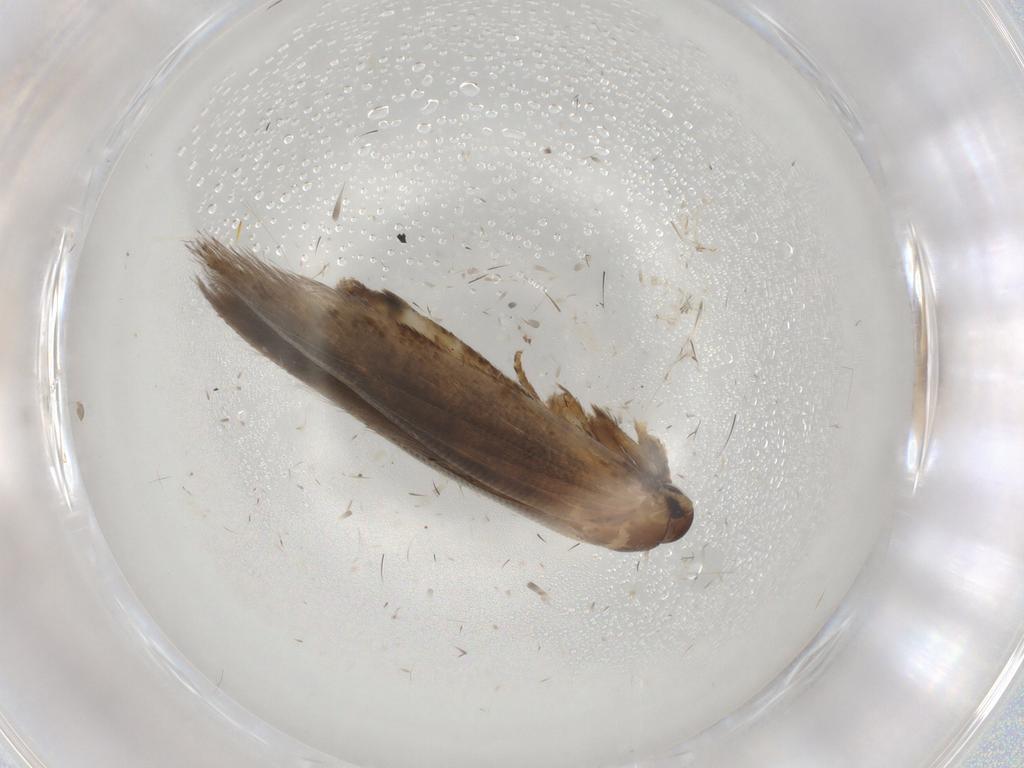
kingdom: Animalia
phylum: Arthropoda
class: Insecta
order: Lepidoptera
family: Cosmopterigidae
